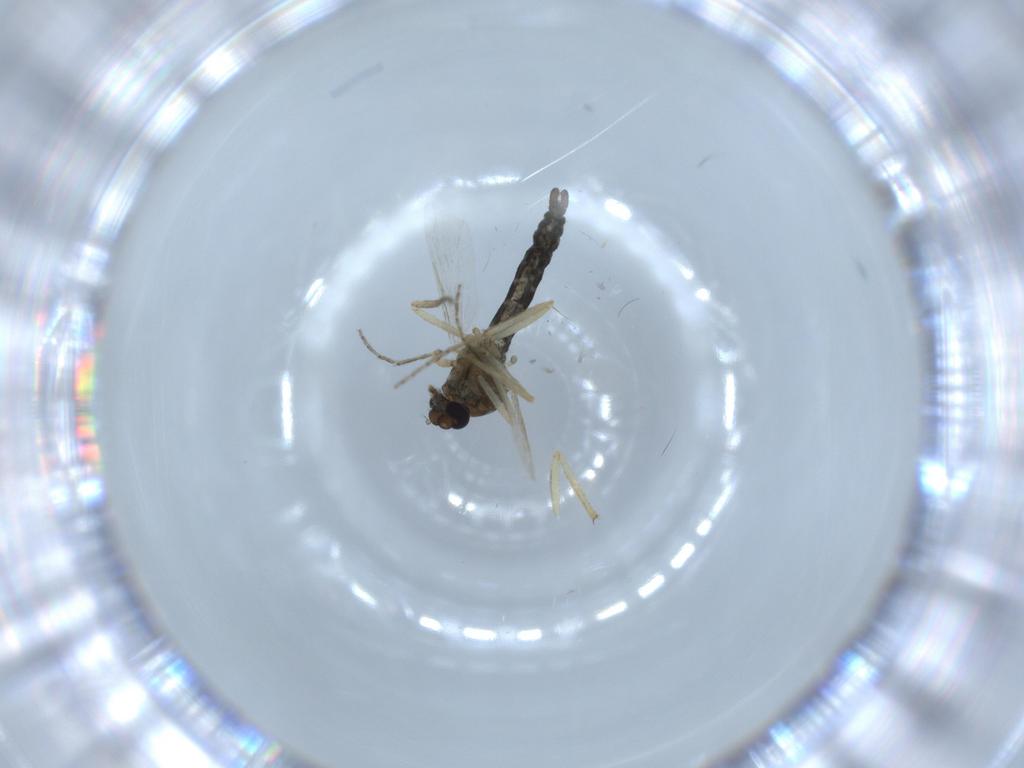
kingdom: Animalia
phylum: Arthropoda
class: Insecta
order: Diptera
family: Ceratopogonidae
